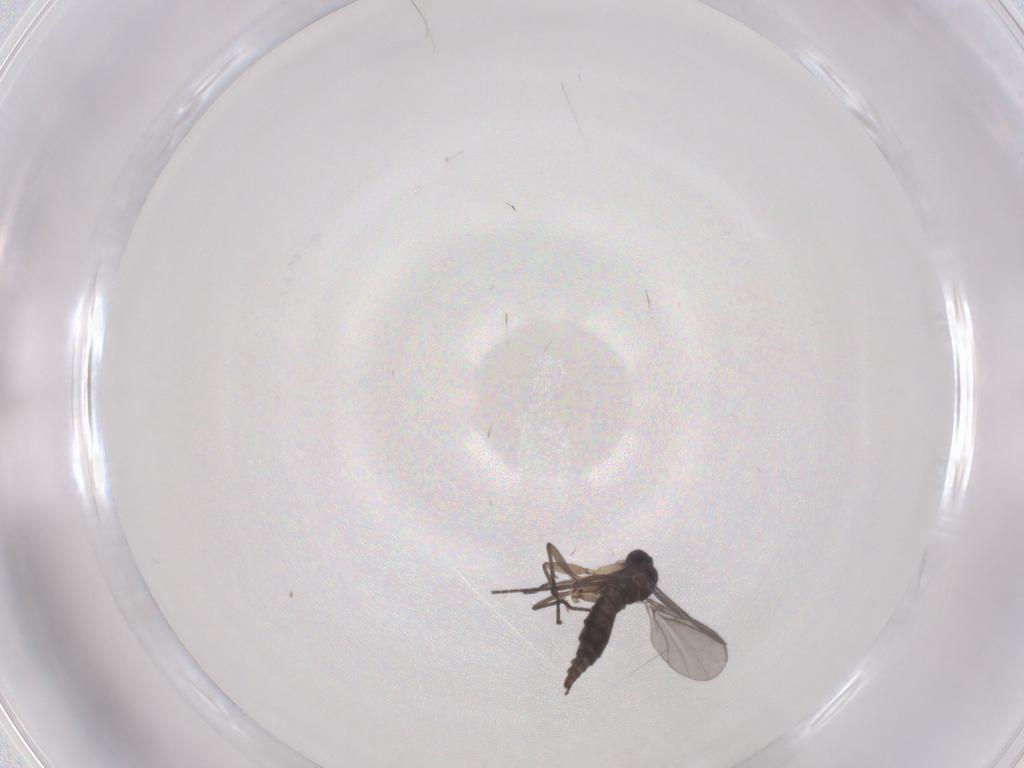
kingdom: Animalia
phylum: Arthropoda
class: Insecta
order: Diptera
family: Sciaridae
